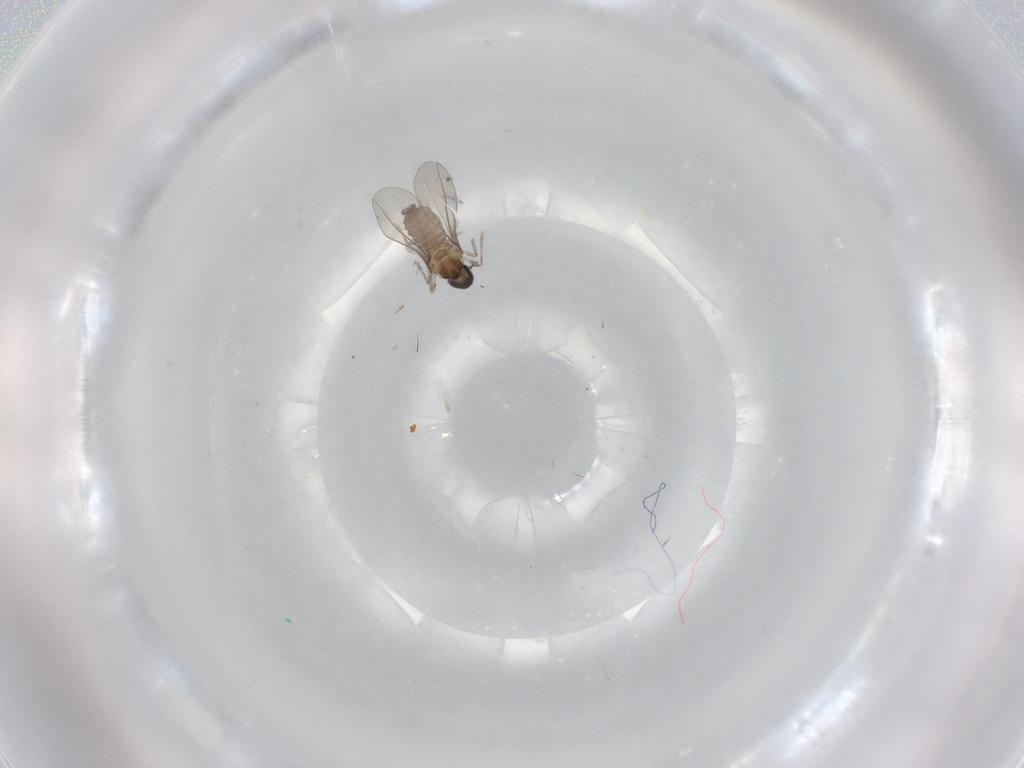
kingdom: Animalia
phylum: Arthropoda
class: Insecta
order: Diptera
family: Cecidomyiidae
